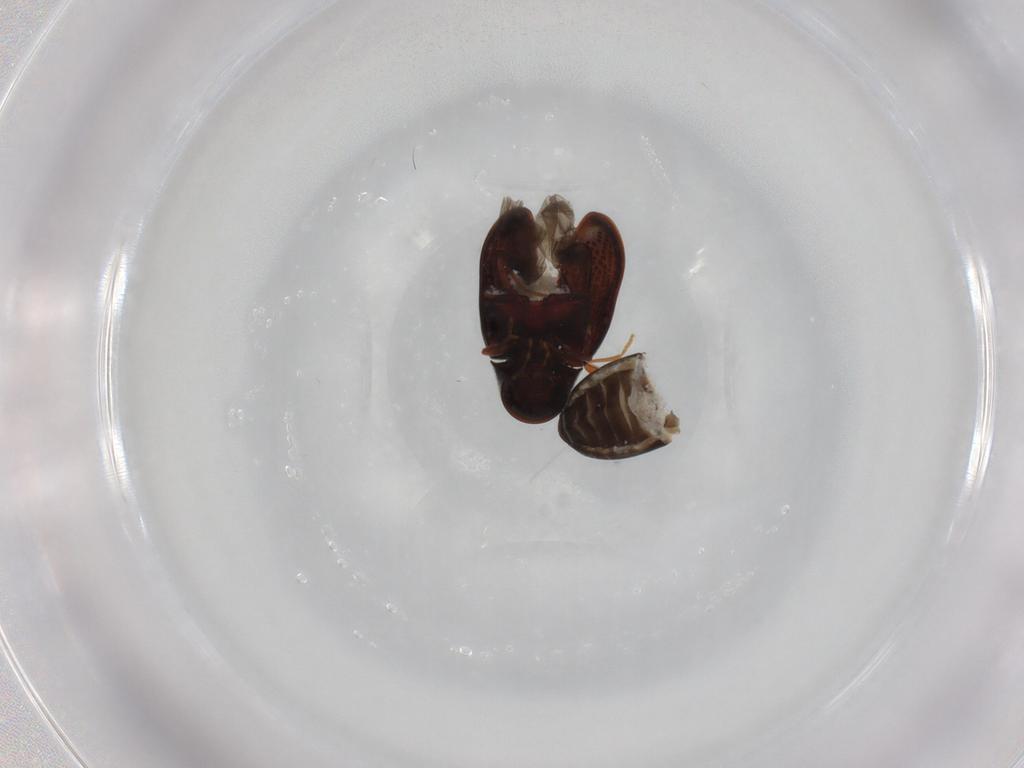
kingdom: Animalia
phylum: Arthropoda
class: Insecta
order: Coleoptera
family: Ptinidae
